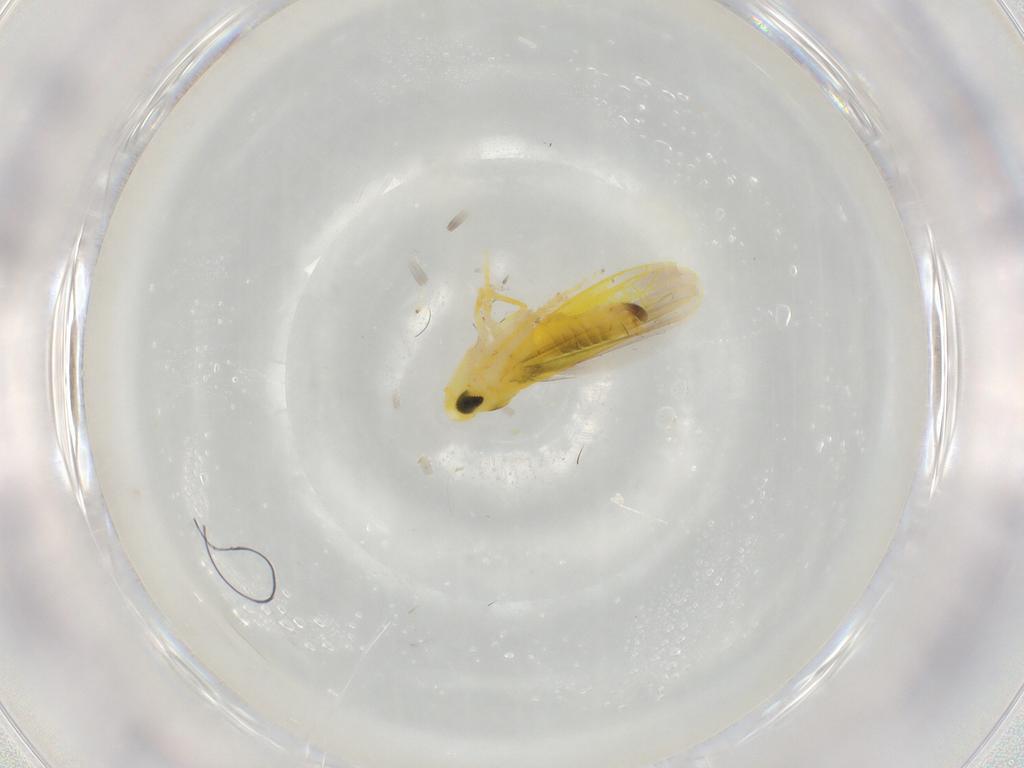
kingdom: Animalia
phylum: Arthropoda
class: Insecta
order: Hemiptera
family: Cicadellidae
